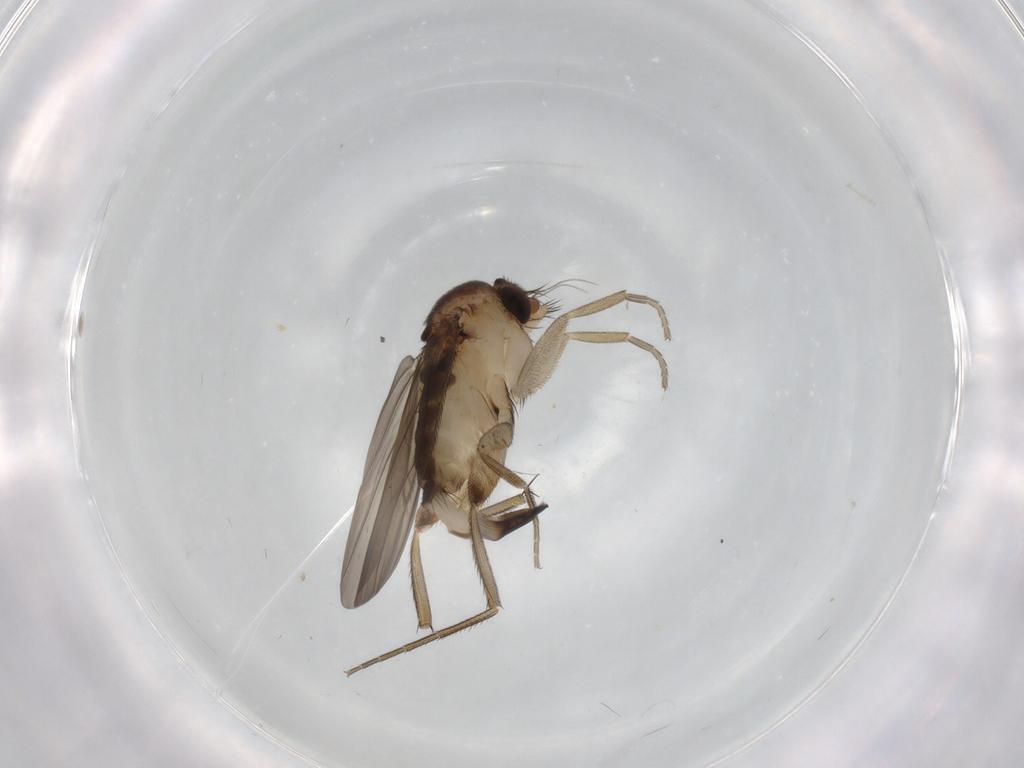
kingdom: Animalia
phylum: Arthropoda
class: Insecta
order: Diptera
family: Phoridae
